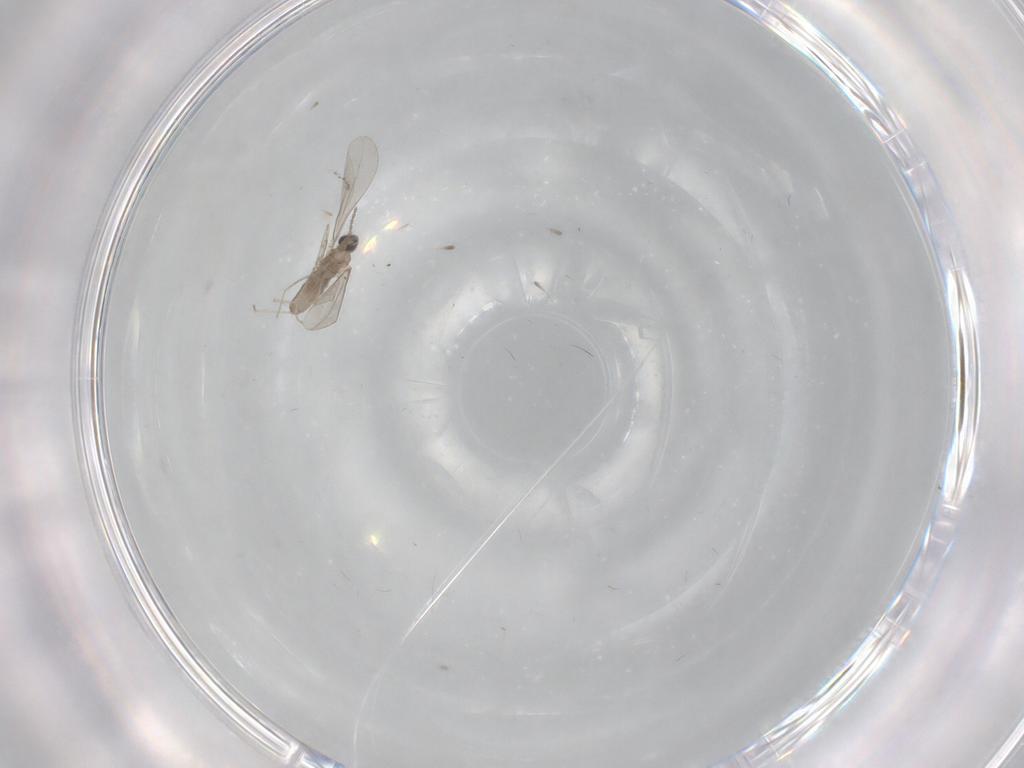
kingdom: Animalia
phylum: Arthropoda
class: Insecta
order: Diptera
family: Cecidomyiidae
